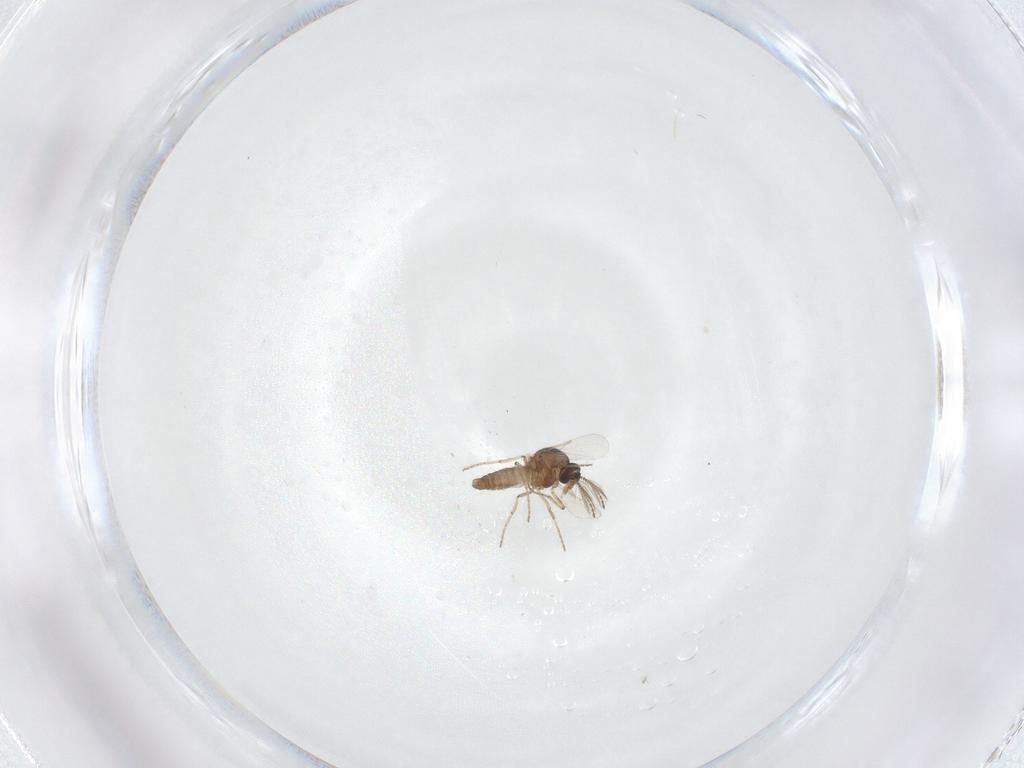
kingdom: Animalia
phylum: Arthropoda
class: Insecta
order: Diptera
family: Ceratopogonidae
